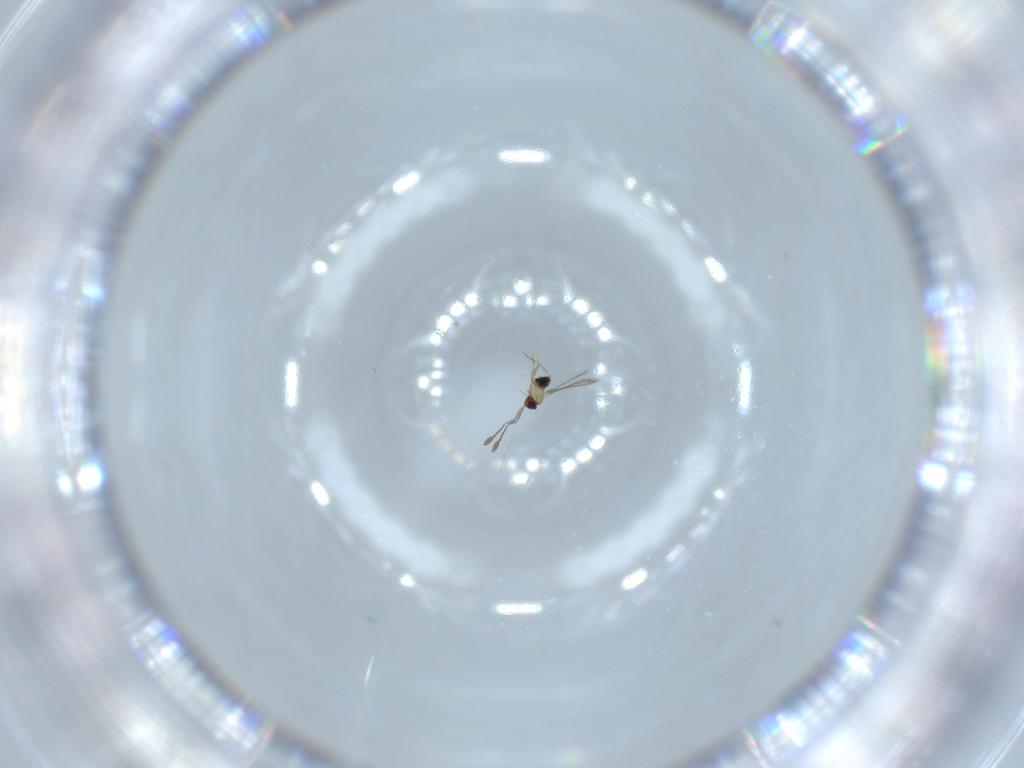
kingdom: Animalia
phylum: Arthropoda
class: Insecta
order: Hymenoptera
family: Mymaridae
